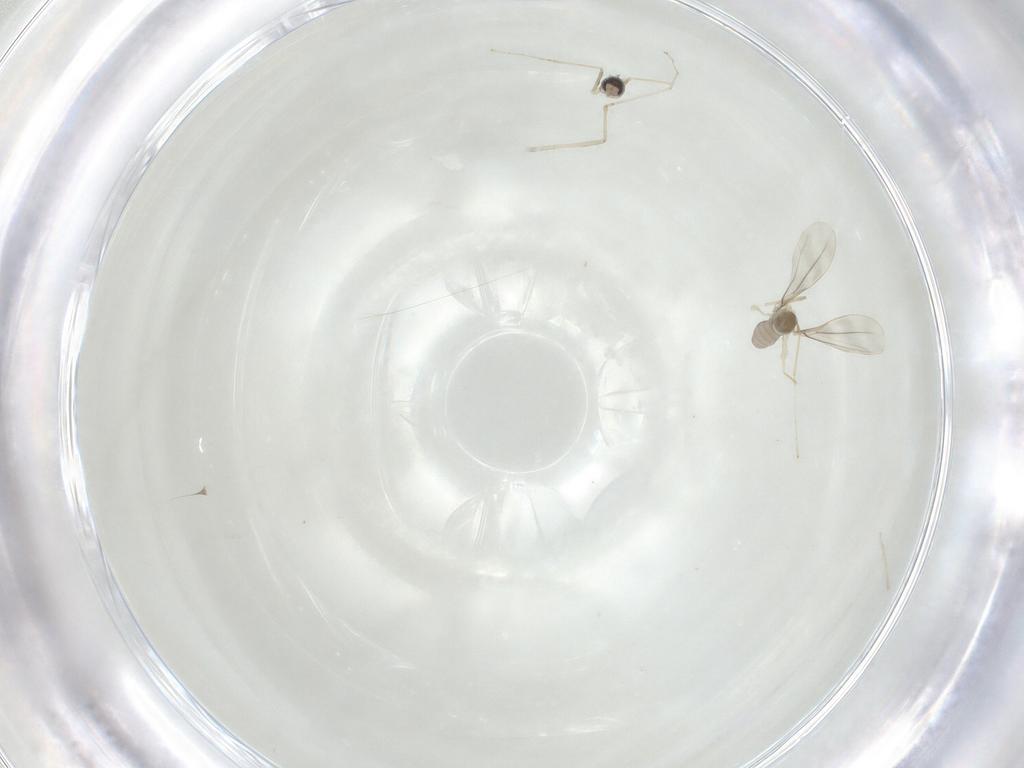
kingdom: Animalia
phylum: Arthropoda
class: Insecta
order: Diptera
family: Cecidomyiidae
